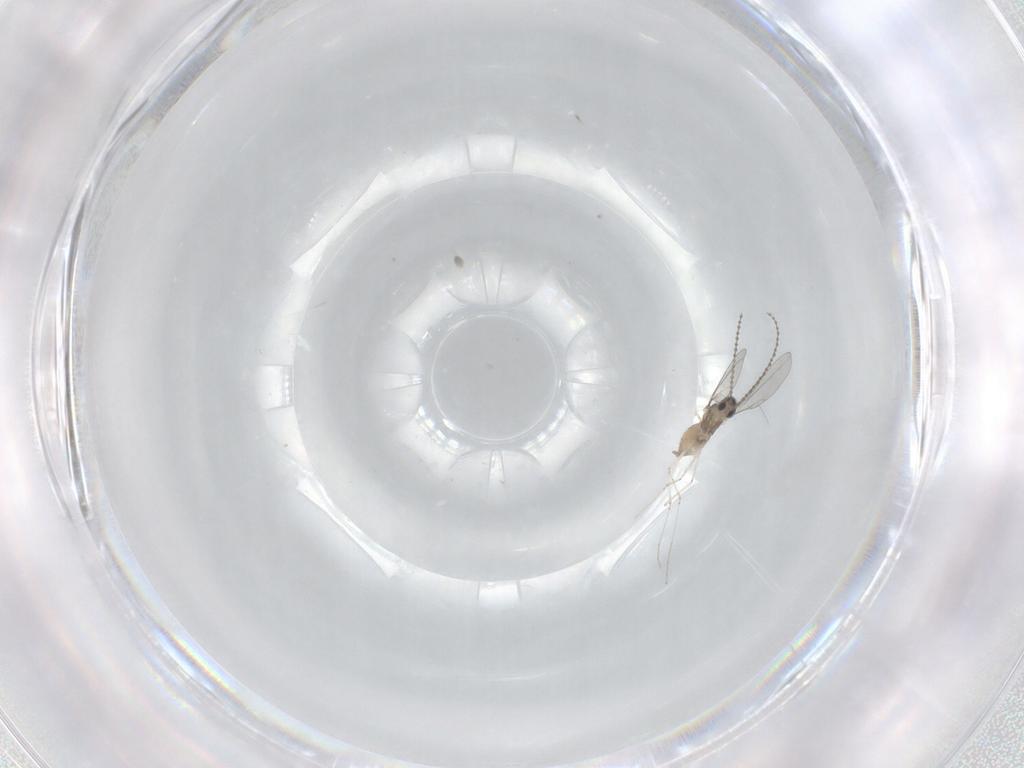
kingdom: Animalia
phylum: Arthropoda
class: Insecta
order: Diptera
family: Cecidomyiidae
